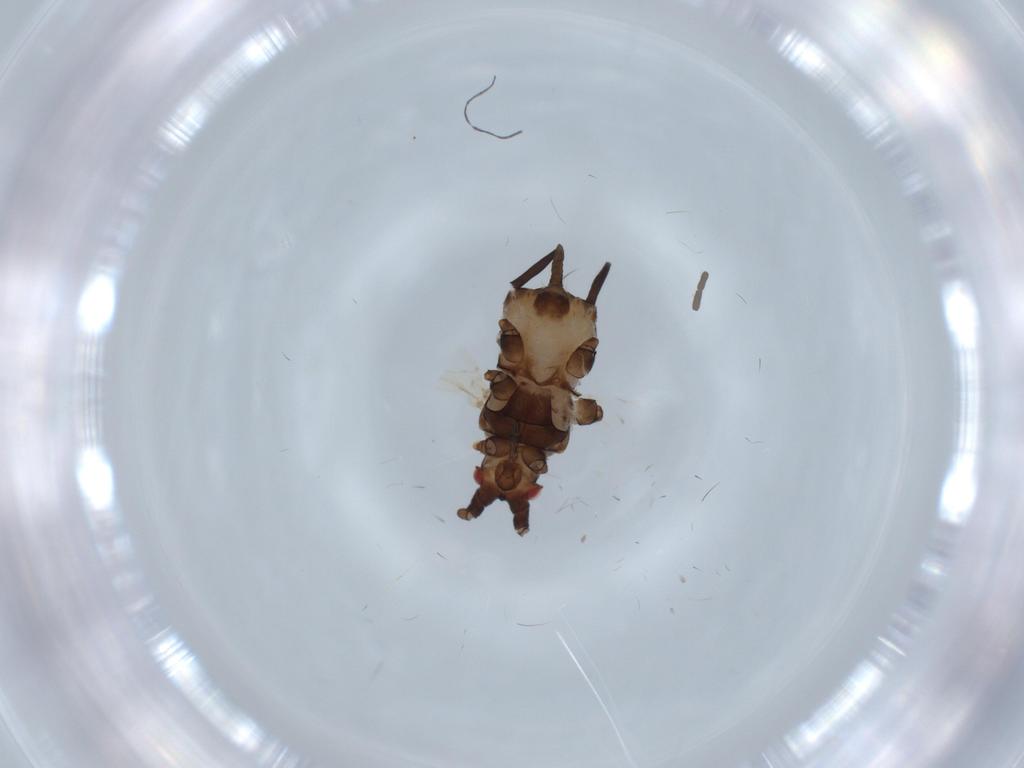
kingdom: Animalia
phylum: Arthropoda
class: Insecta
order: Hemiptera
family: Aphididae
